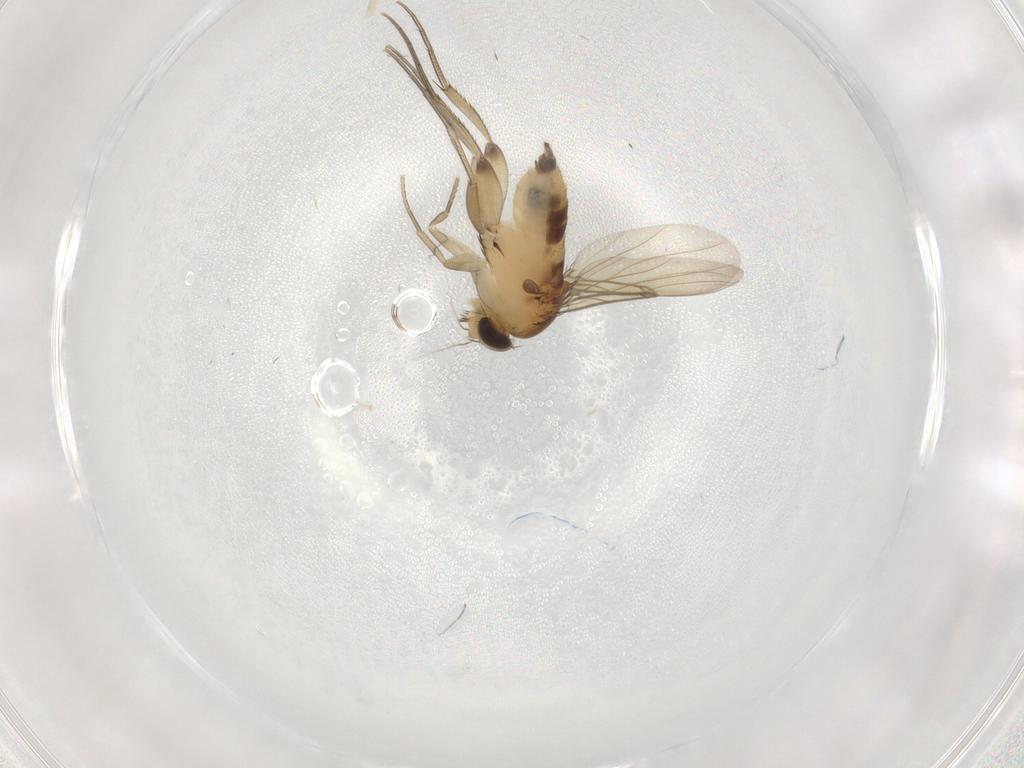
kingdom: Animalia
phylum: Arthropoda
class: Insecta
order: Diptera
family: Phoridae
